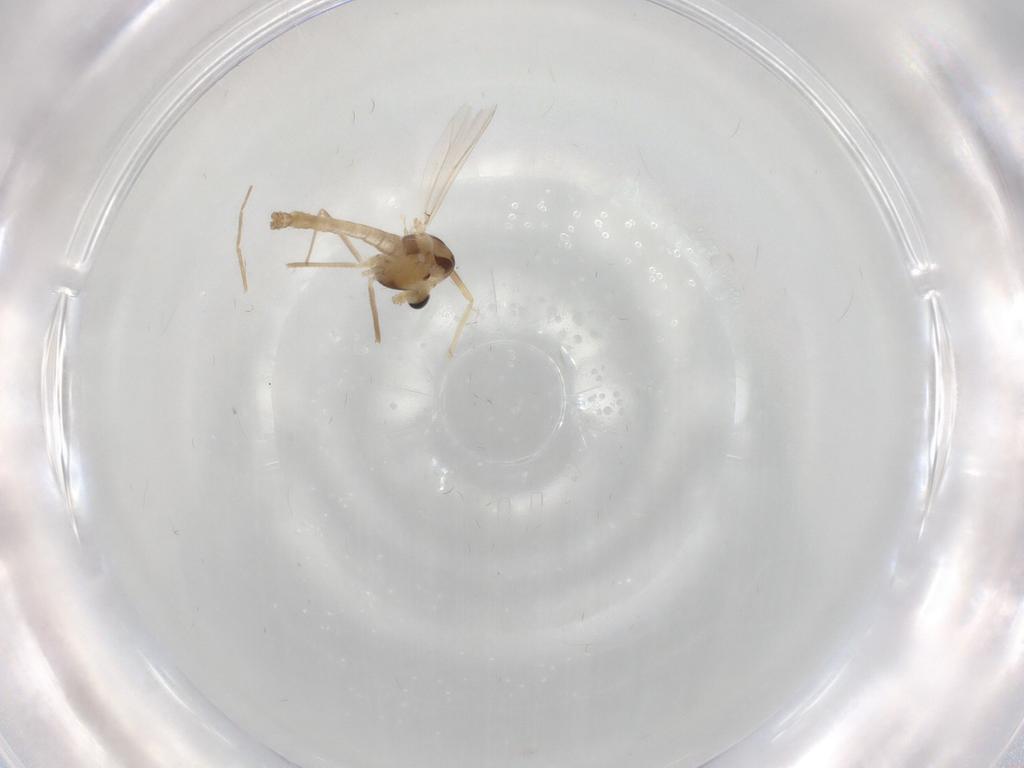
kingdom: Animalia
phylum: Arthropoda
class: Insecta
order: Diptera
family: Chironomidae
